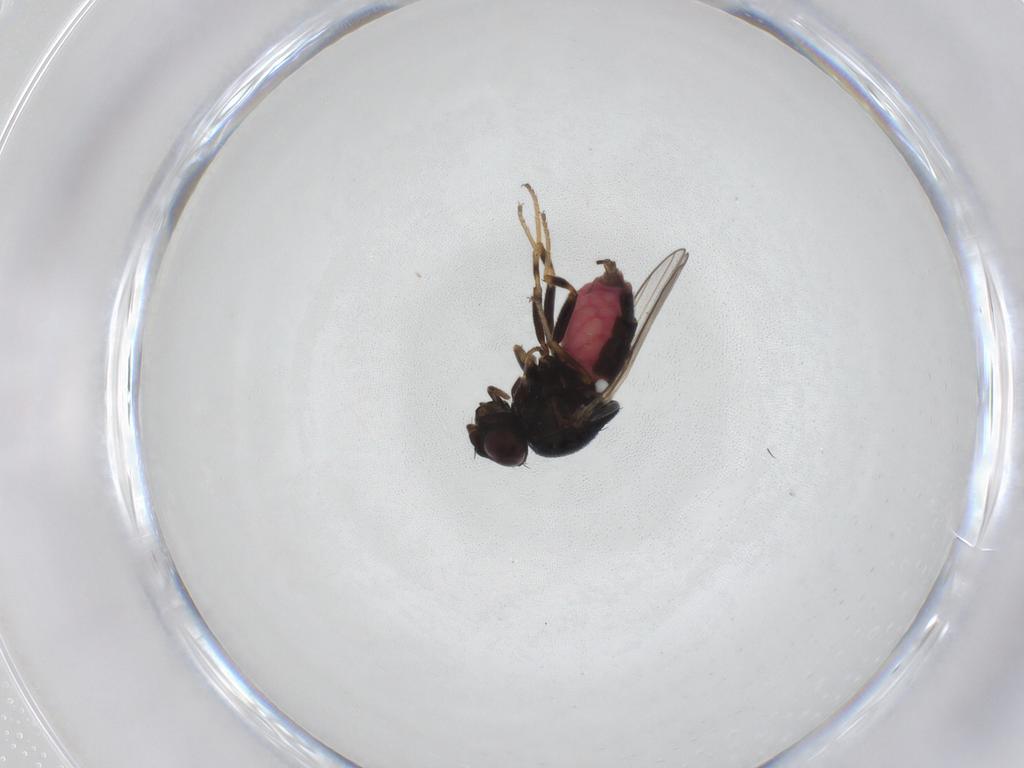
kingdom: Animalia
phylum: Arthropoda
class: Insecta
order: Diptera
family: Chloropidae
